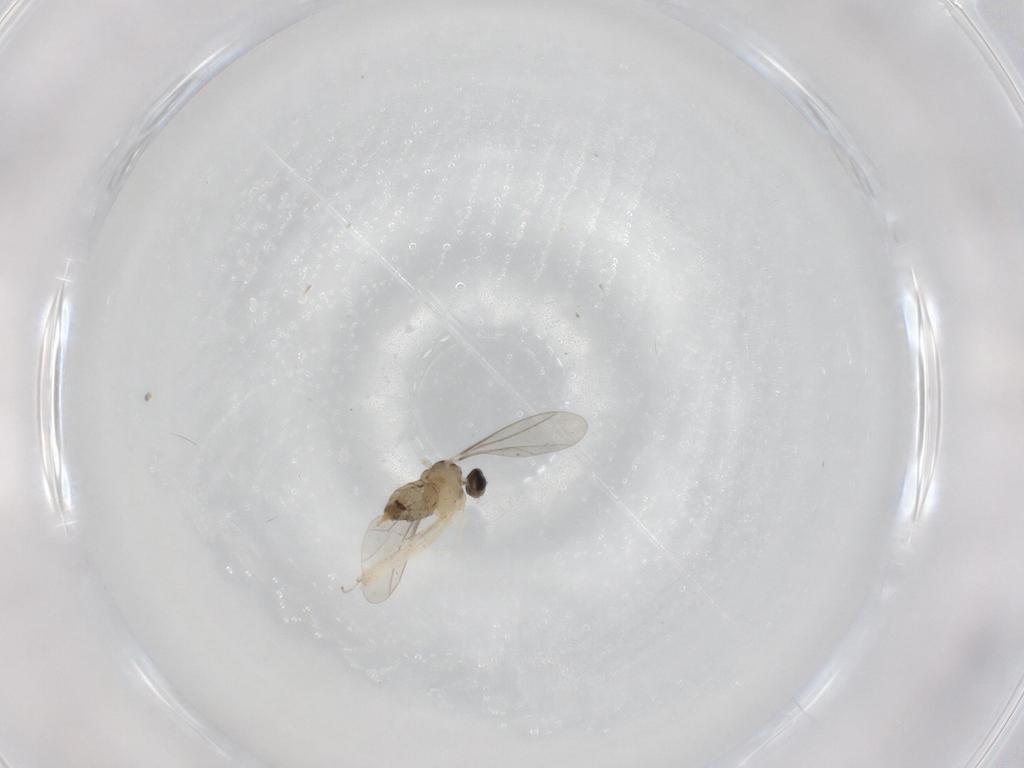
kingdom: Animalia
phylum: Arthropoda
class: Insecta
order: Diptera
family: Cecidomyiidae
